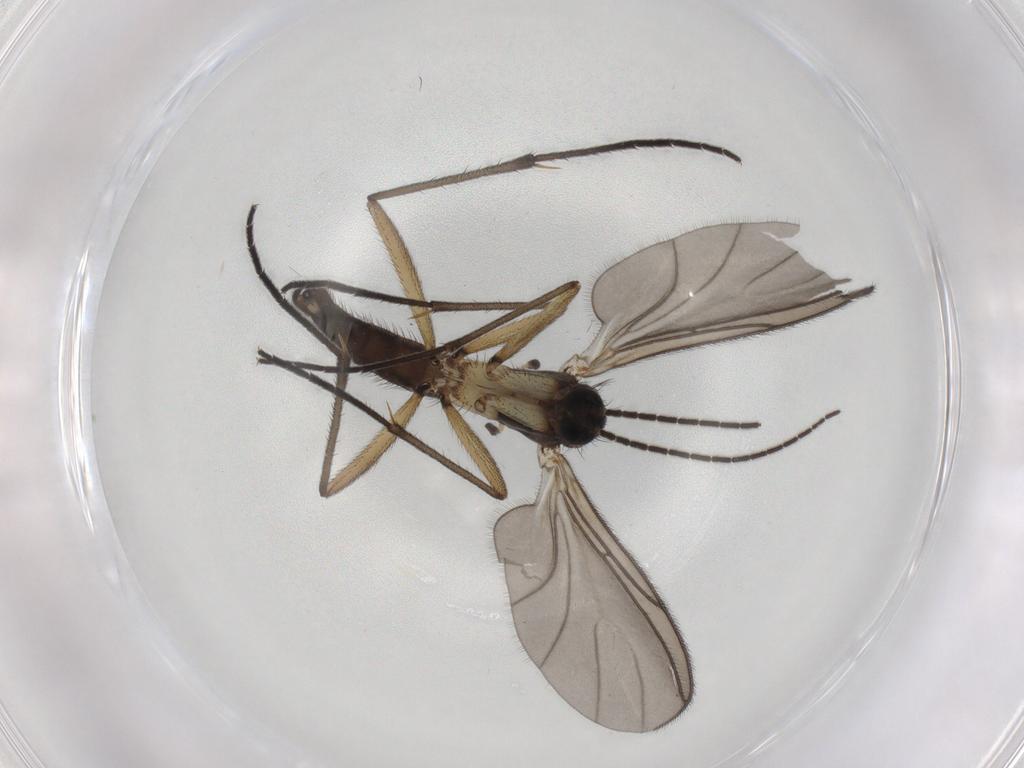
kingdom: Animalia
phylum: Arthropoda
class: Insecta
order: Diptera
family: Sciaridae
